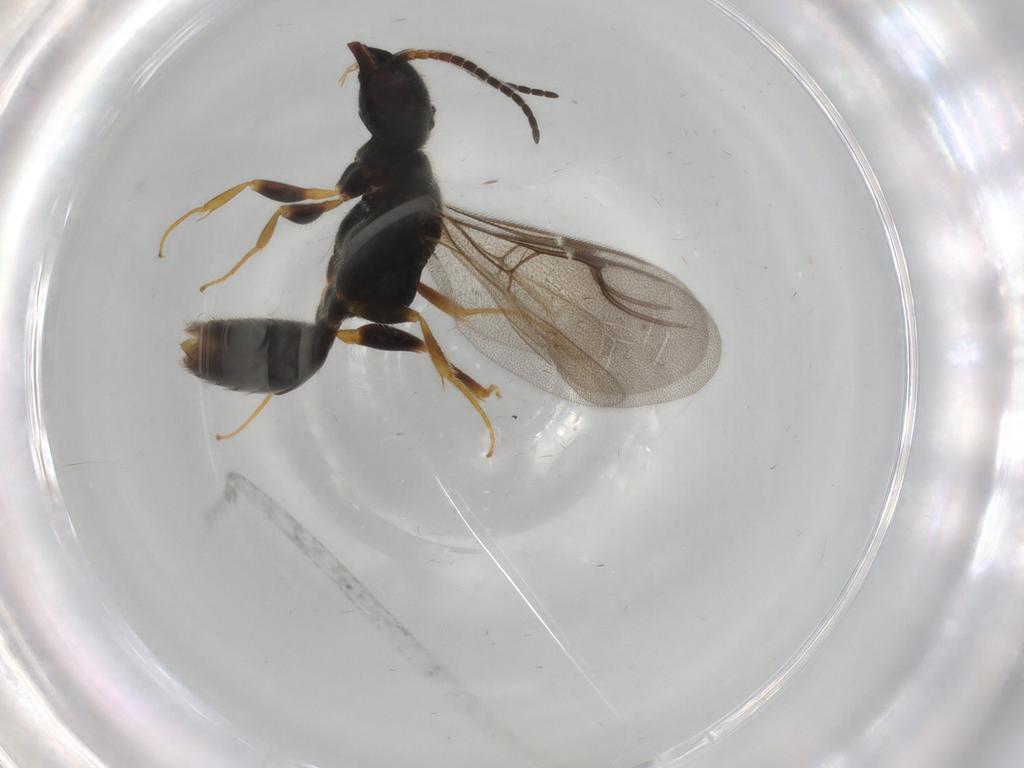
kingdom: Animalia
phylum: Arthropoda
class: Insecta
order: Hymenoptera
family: Bethylidae
